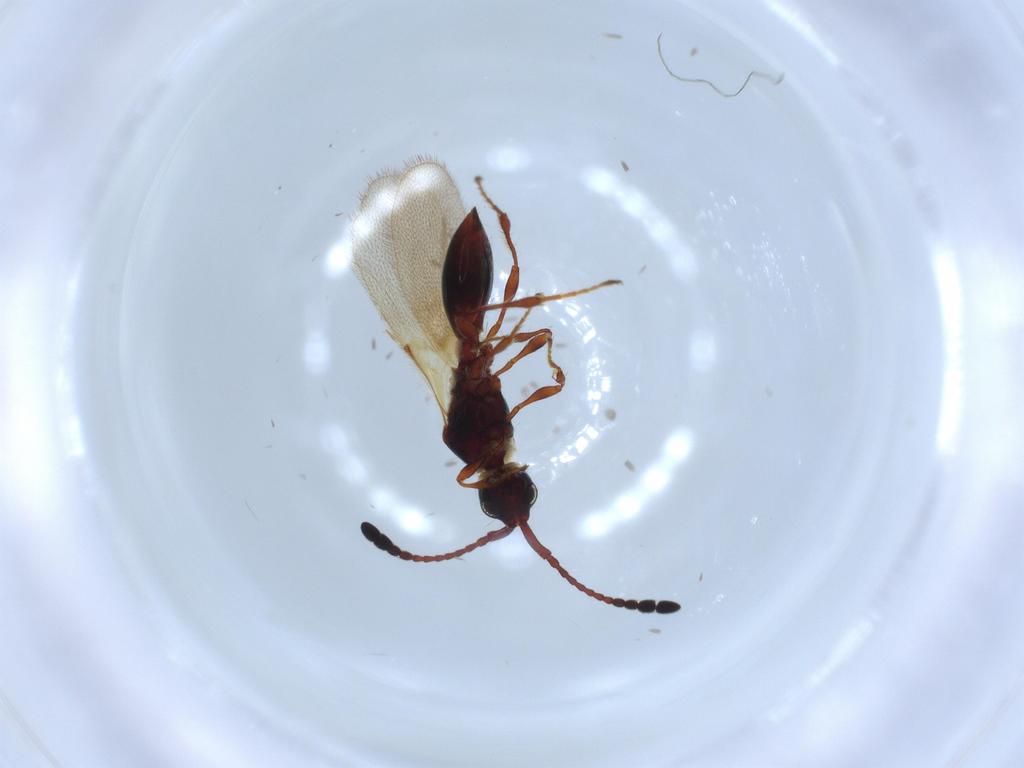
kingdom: Animalia
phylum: Arthropoda
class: Insecta
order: Hymenoptera
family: Diapriidae
